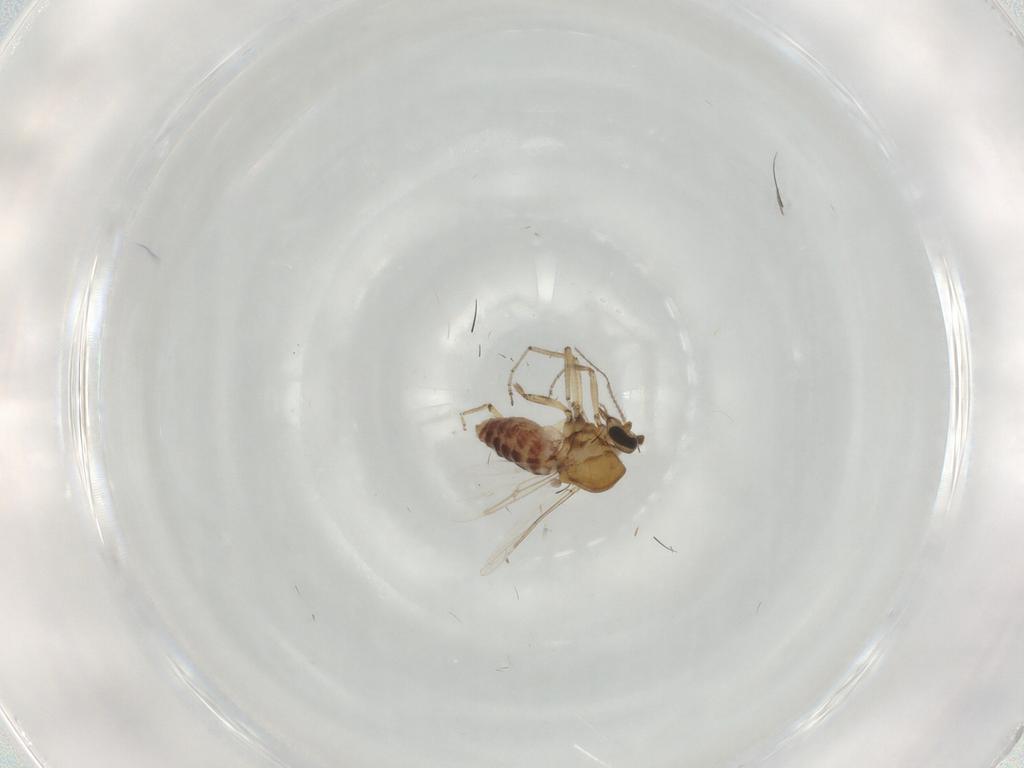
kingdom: Animalia
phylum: Arthropoda
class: Insecta
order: Diptera
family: Ceratopogonidae
